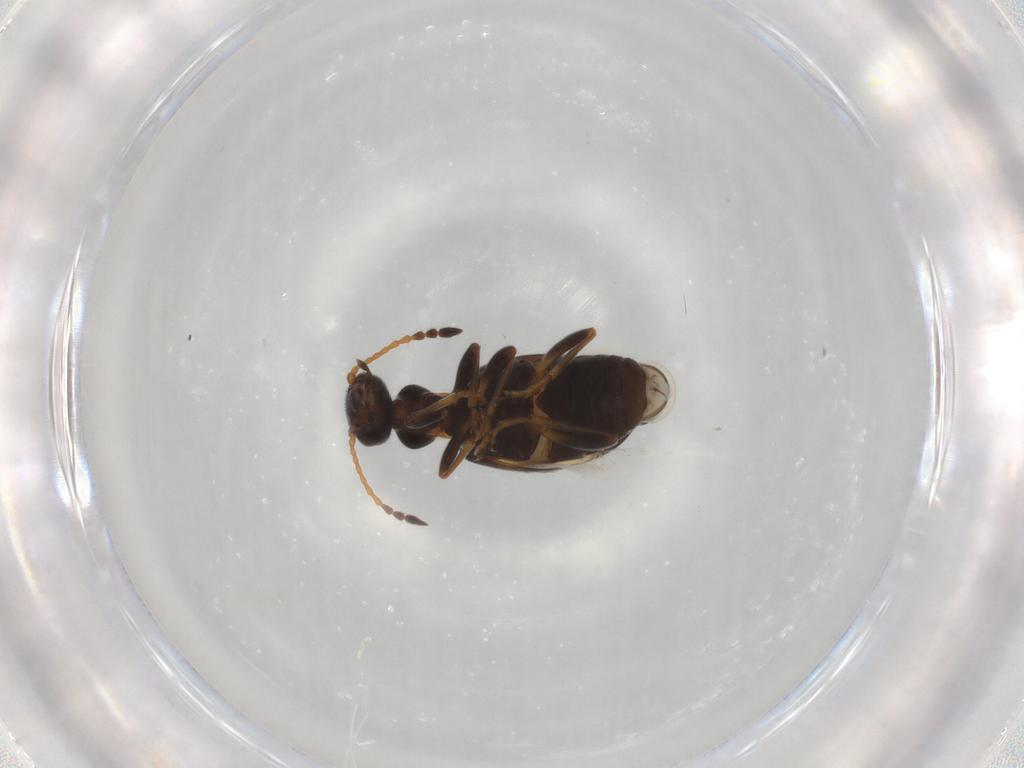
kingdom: Animalia
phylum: Arthropoda
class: Insecta
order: Coleoptera
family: Anthicidae
